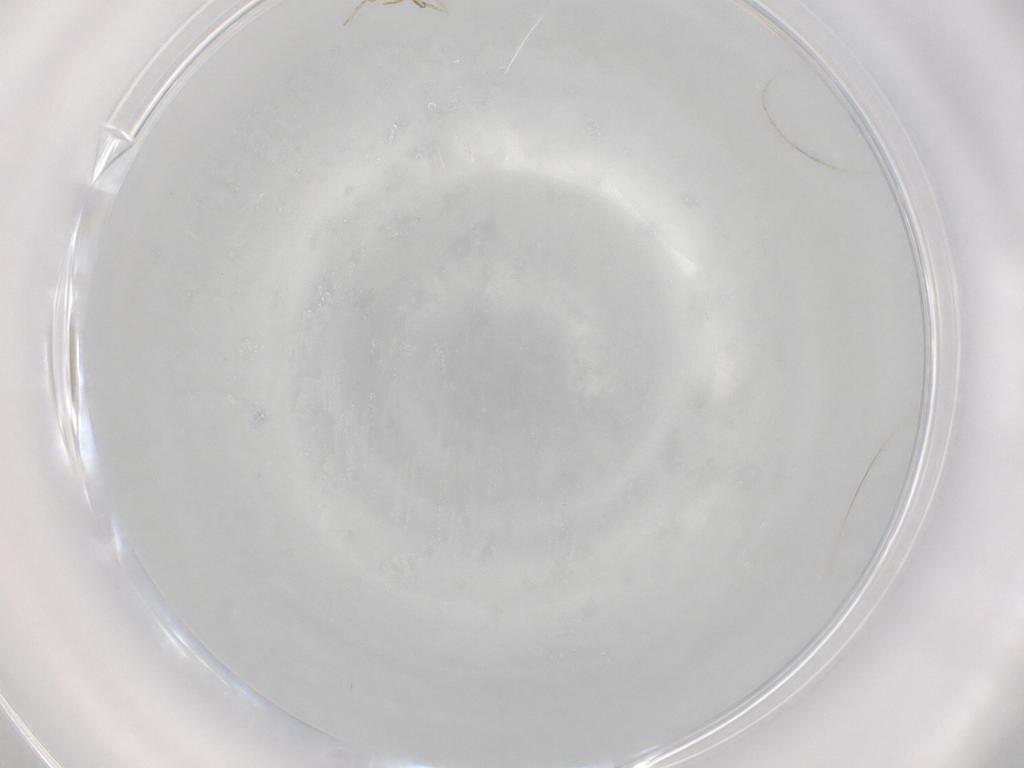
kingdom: Animalia
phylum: Arthropoda
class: Insecta
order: Diptera
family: Cecidomyiidae
